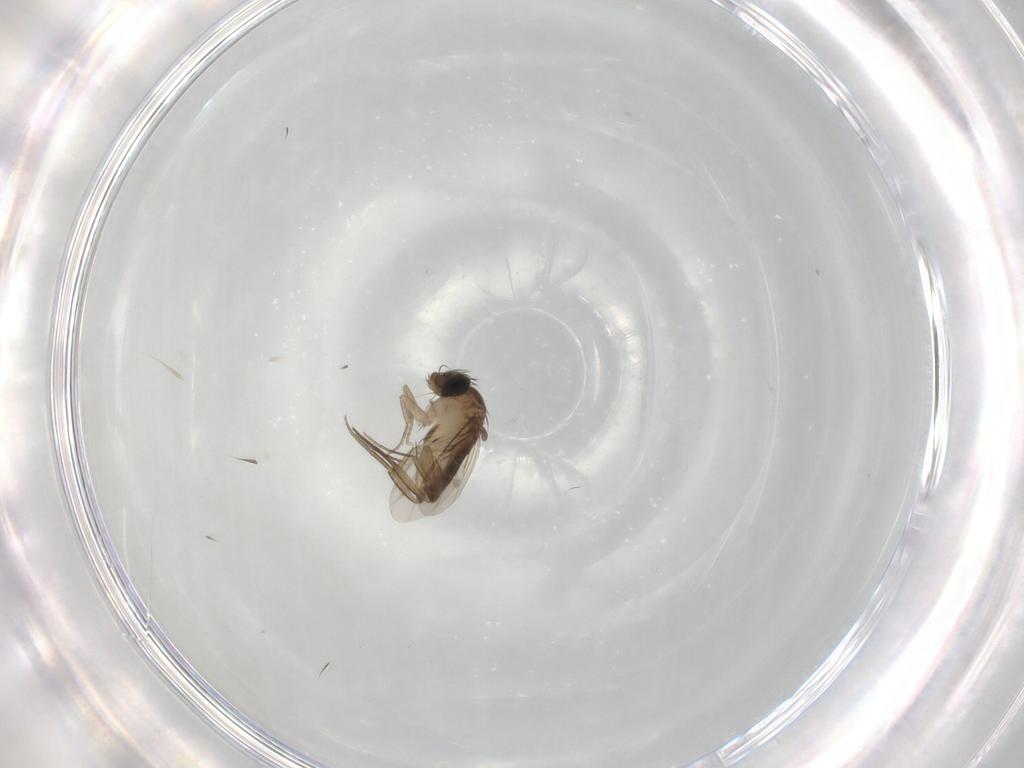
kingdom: Animalia
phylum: Arthropoda
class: Insecta
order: Diptera
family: Phoridae
